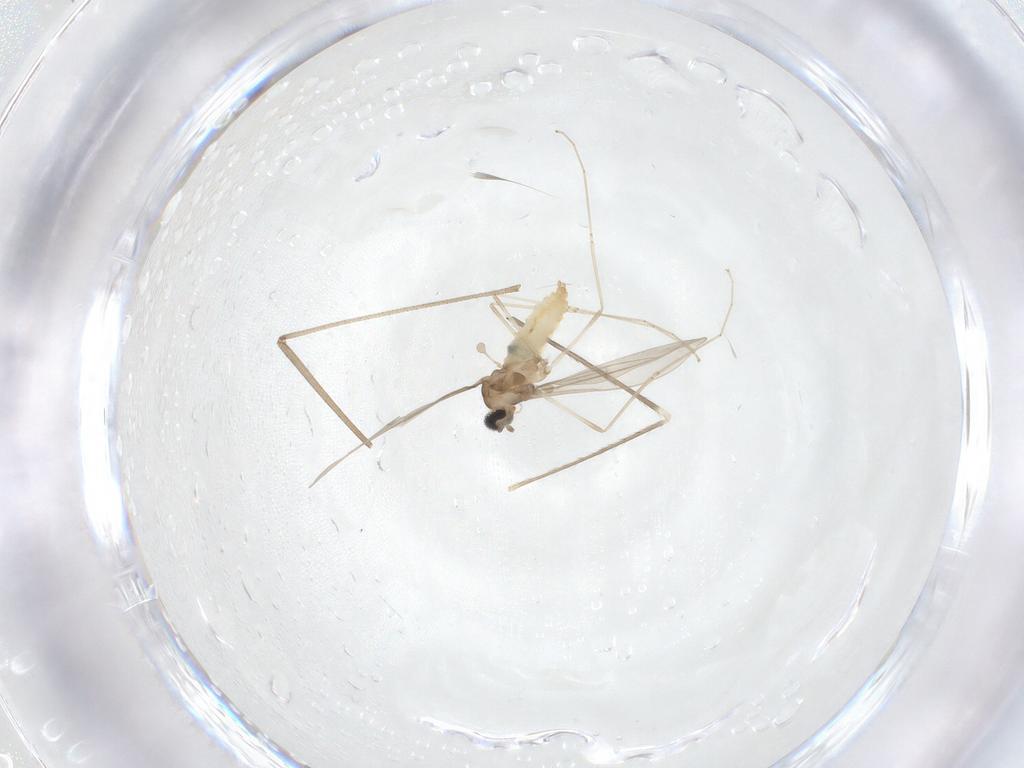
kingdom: Animalia
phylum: Arthropoda
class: Insecta
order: Diptera
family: Cecidomyiidae
